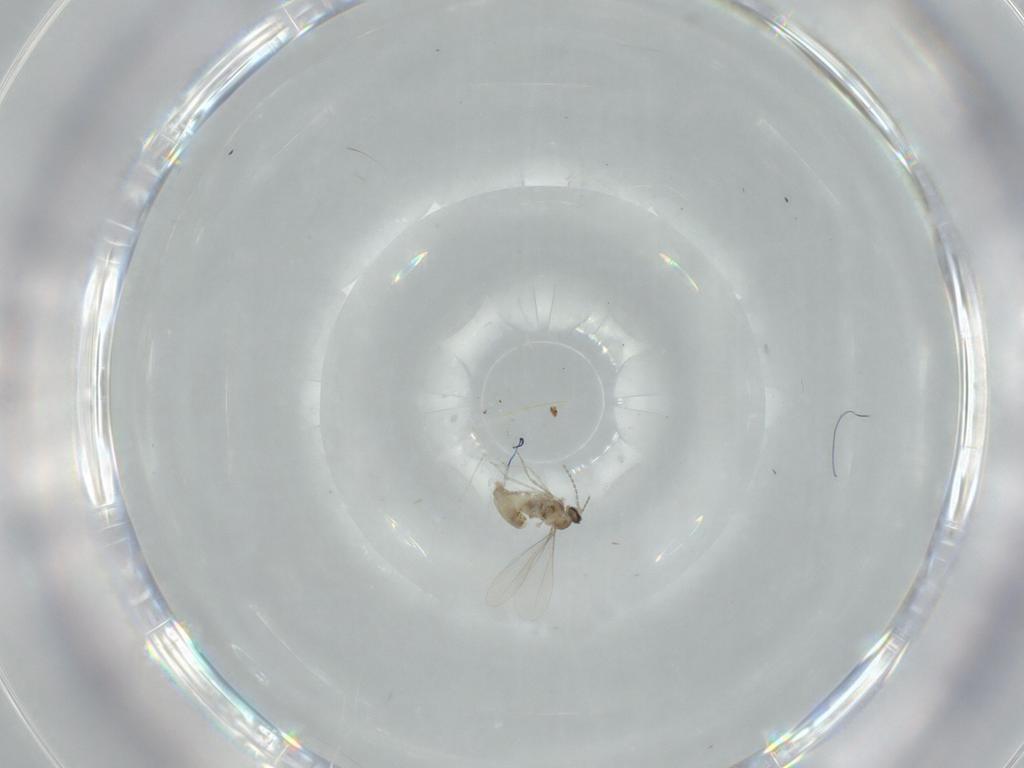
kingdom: Animalia
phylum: Arthropoda
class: Insecta
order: Diptera
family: Cecidomyiidae
